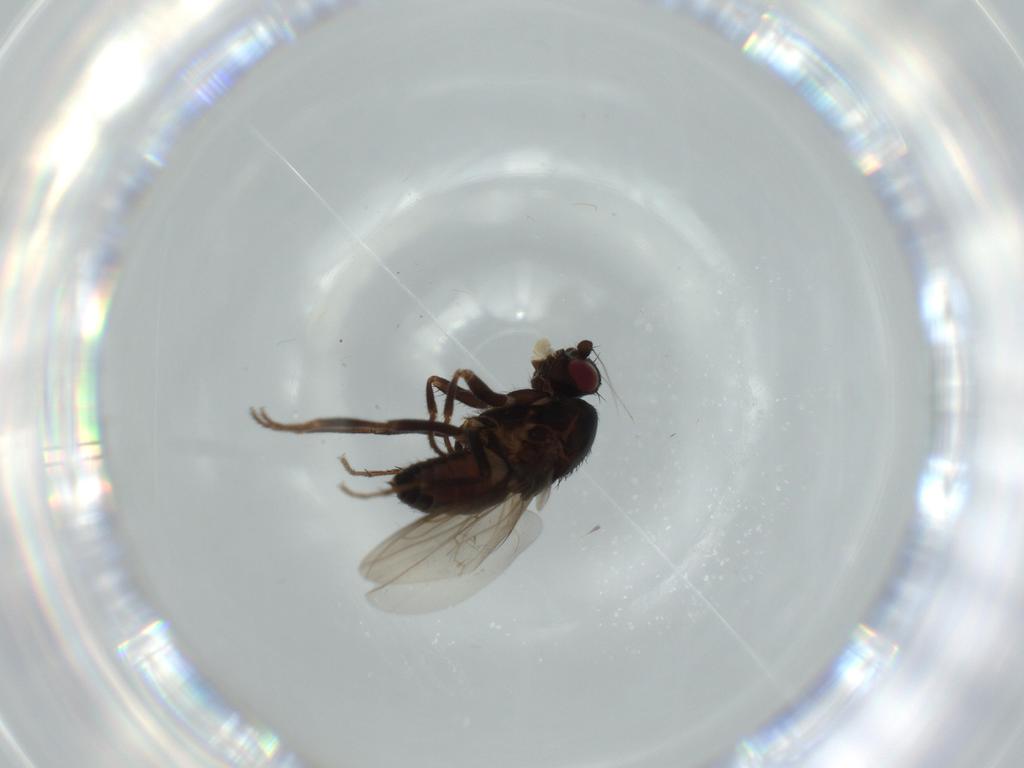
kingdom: Animalia
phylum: Arthropoda
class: Insecta
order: Diptera
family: Sphaeroceridae
